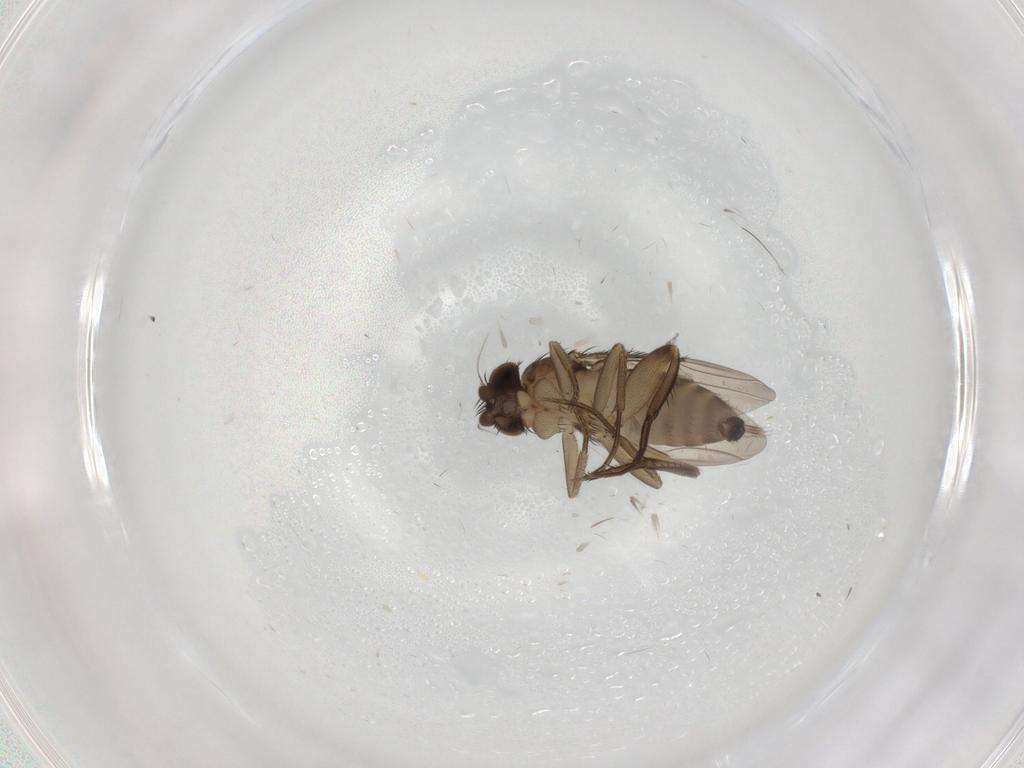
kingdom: Animalia
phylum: Arthropoda
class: Insecta
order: Diptera
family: Phoridae
